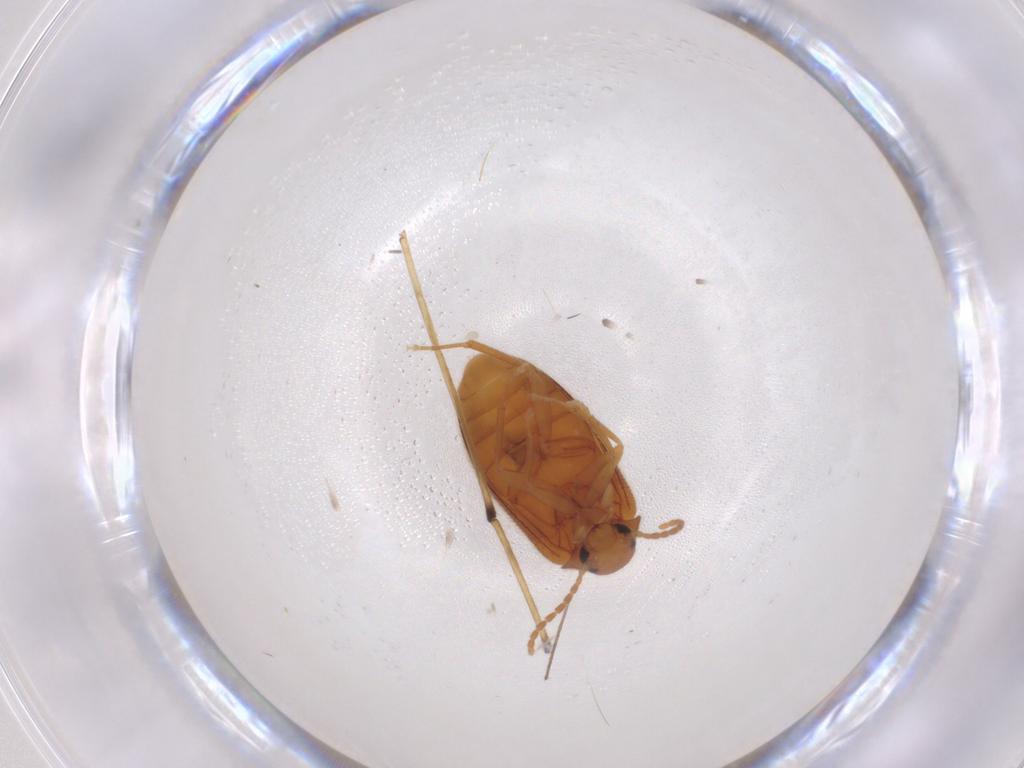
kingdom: Animalia
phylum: Arthropoda
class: Insecta
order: Coleoptera
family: Scraptiidae
